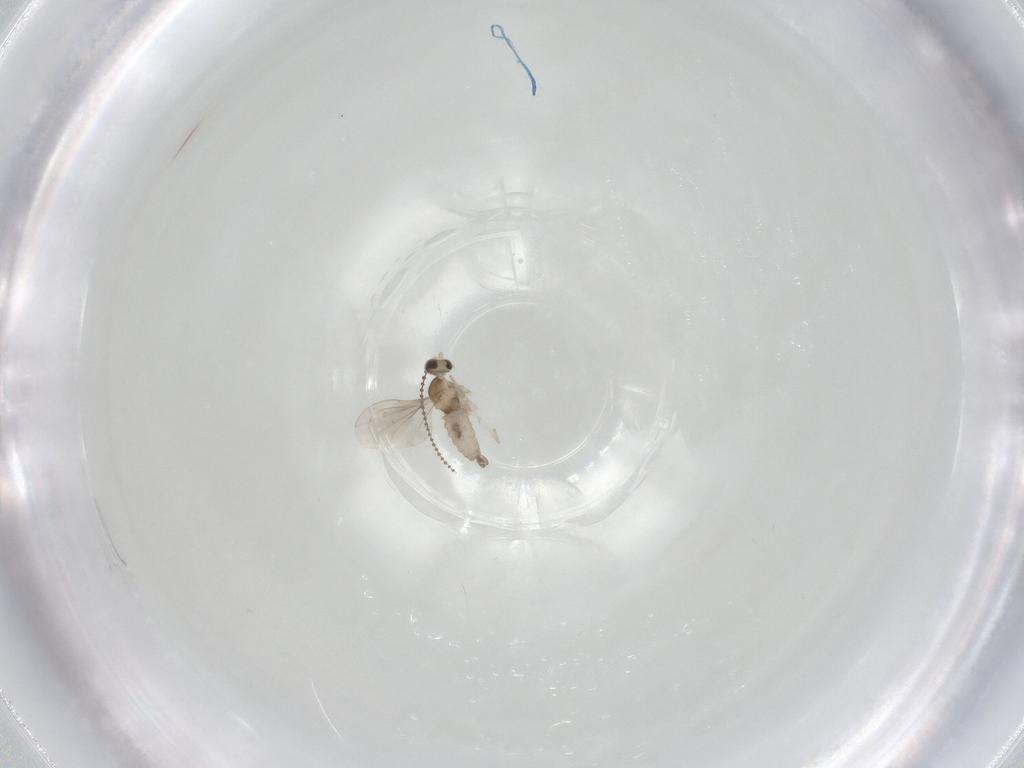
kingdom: Animalia
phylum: Arthropoda
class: Insecta
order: Diptera
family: Cecidomyiidae
